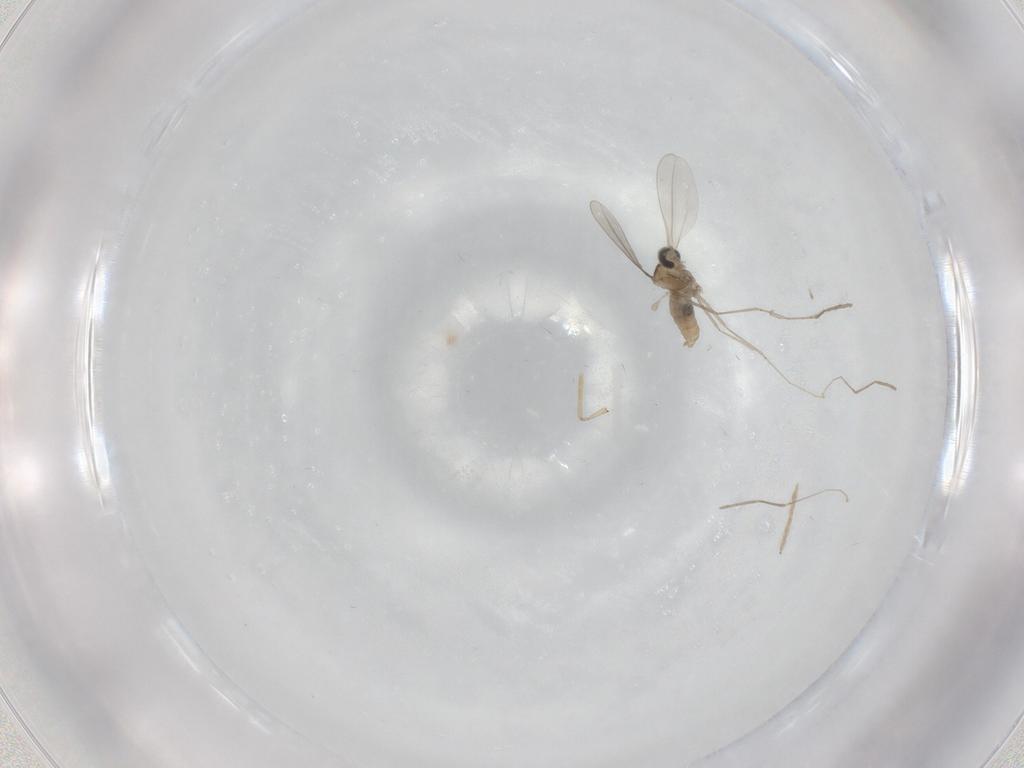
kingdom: Animalia
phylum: Arthropoda
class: Insecta
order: Diptera
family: Cecidomyiidae
